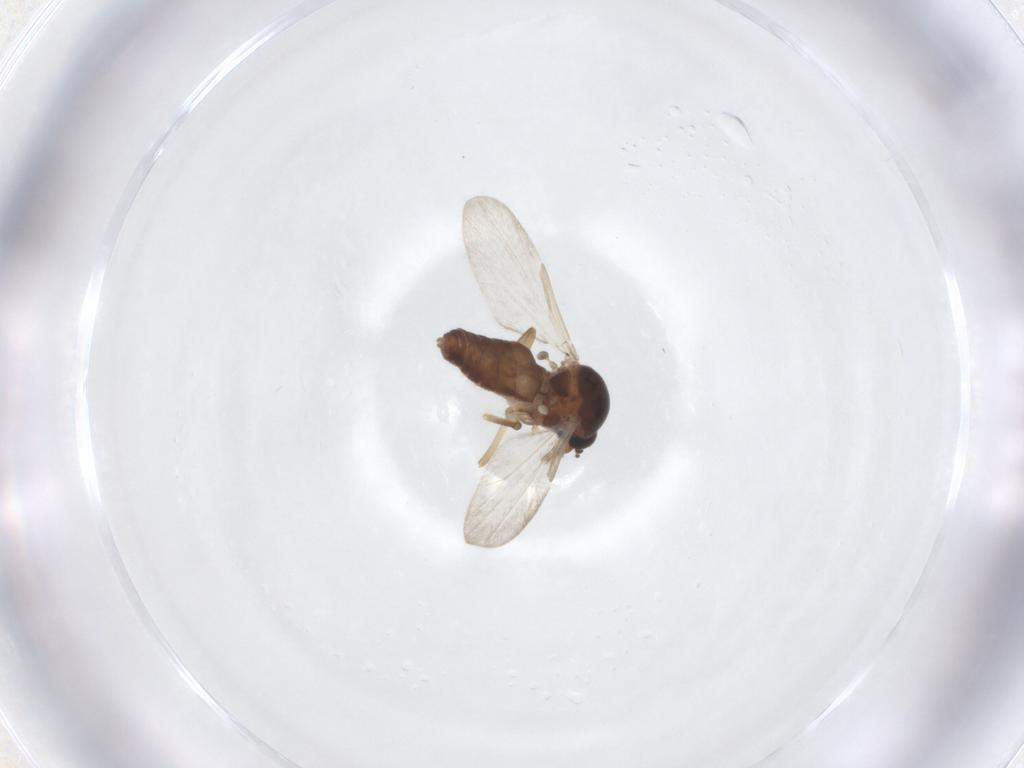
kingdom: Animalia
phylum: Arthropoda
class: Insecta
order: Diptera
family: Ceratopogonidae
